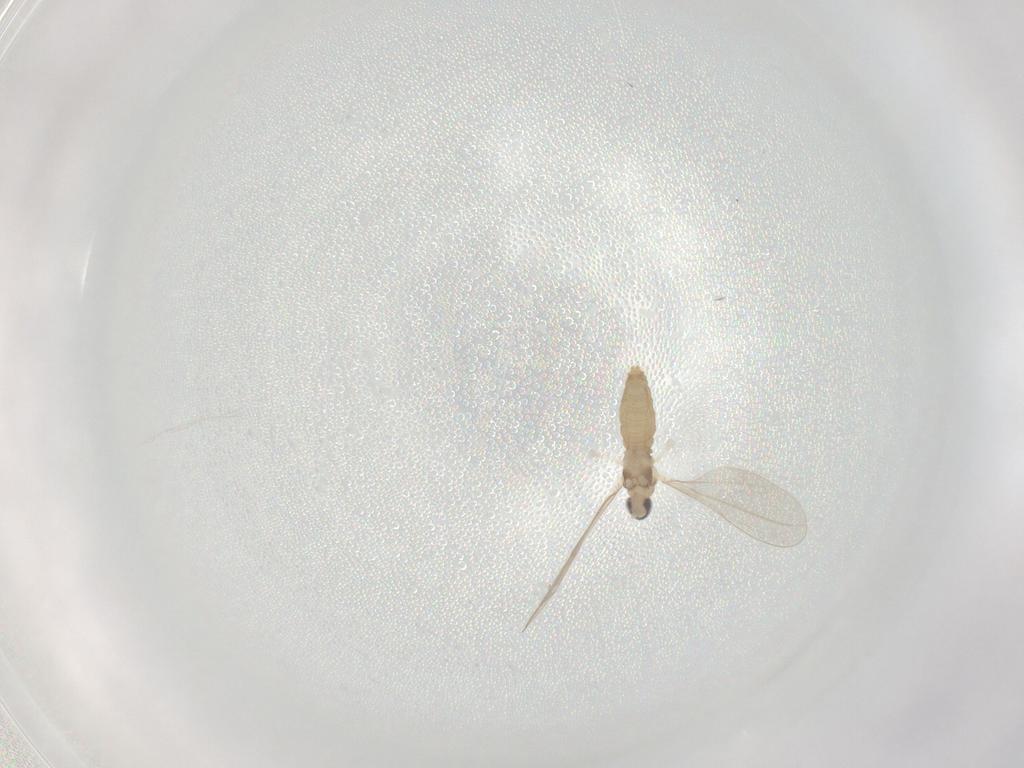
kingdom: Animalia
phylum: Arthropoda
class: Insecta
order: Diptera
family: Cecidomyiidae
